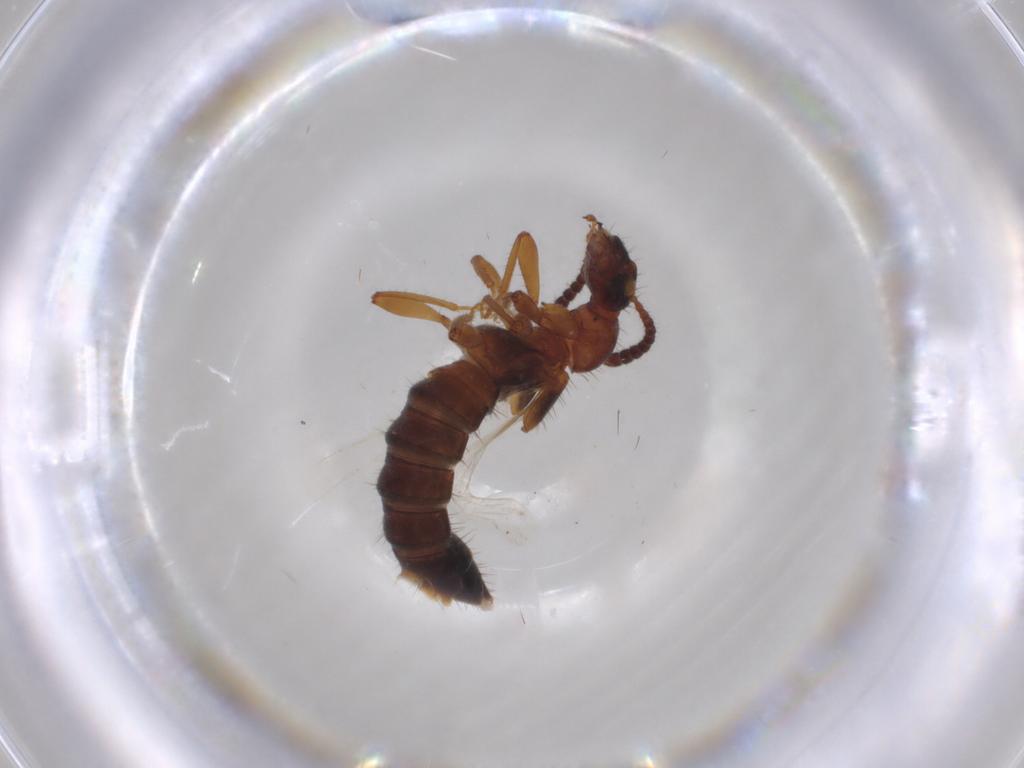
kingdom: Animalia
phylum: Arthropoda
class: Insecta
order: Coleoptera
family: Staphylinidae
